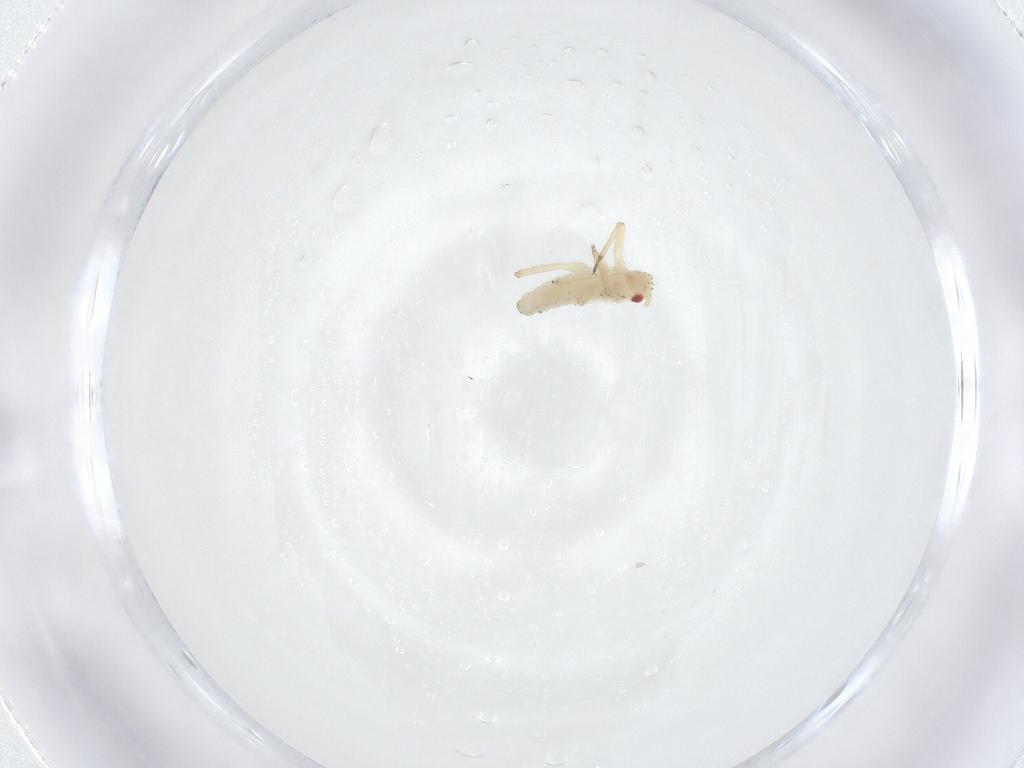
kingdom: Animalia
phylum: Arthropoda
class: Insecta
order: Hemiptera
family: Aphididae
